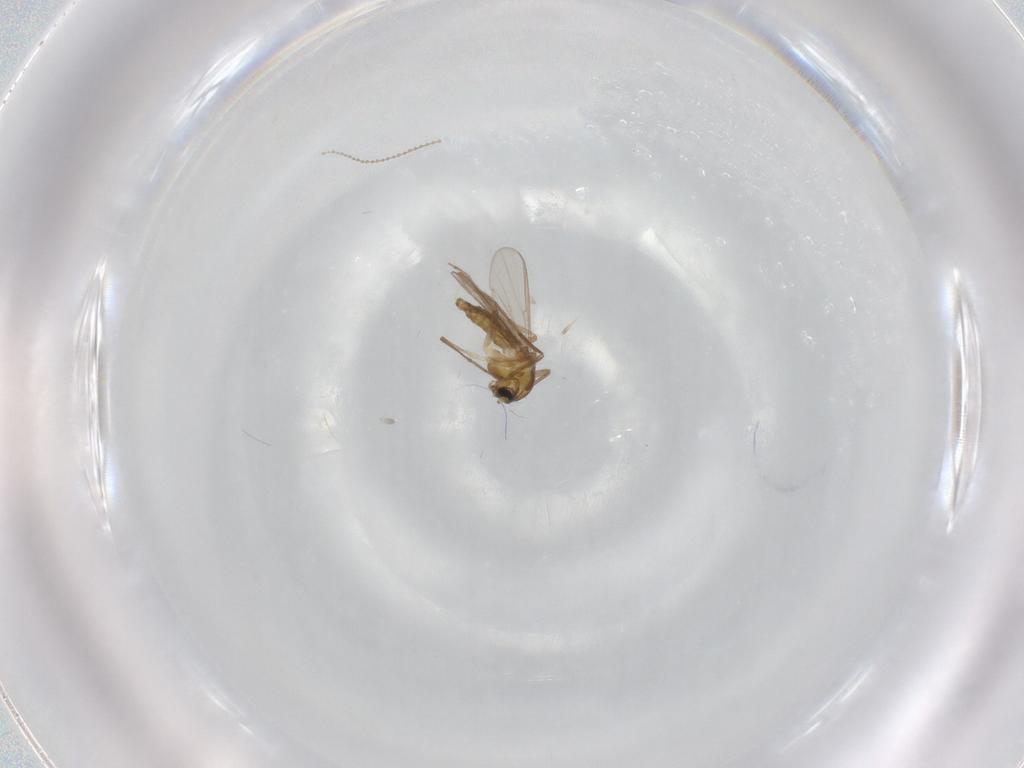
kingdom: Animalia
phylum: Arthropoda
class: Insecta
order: Diptera
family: Chironomidae
